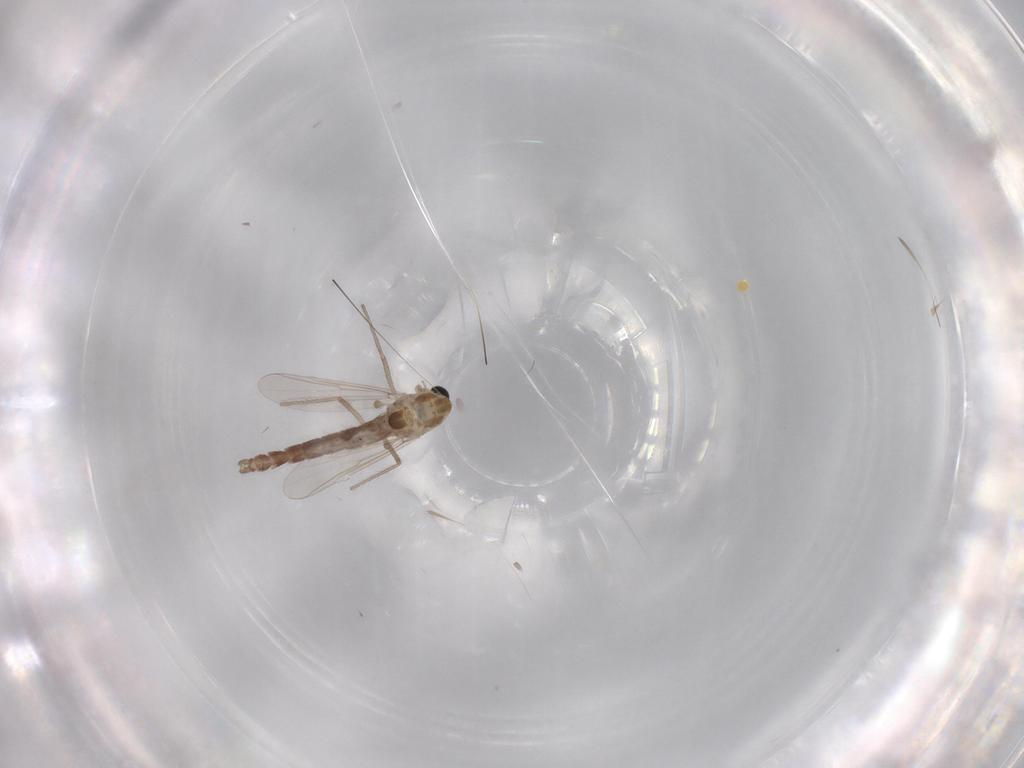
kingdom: Animalia
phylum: Arthropoda
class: Insecta
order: Diptera
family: Chironomidae
